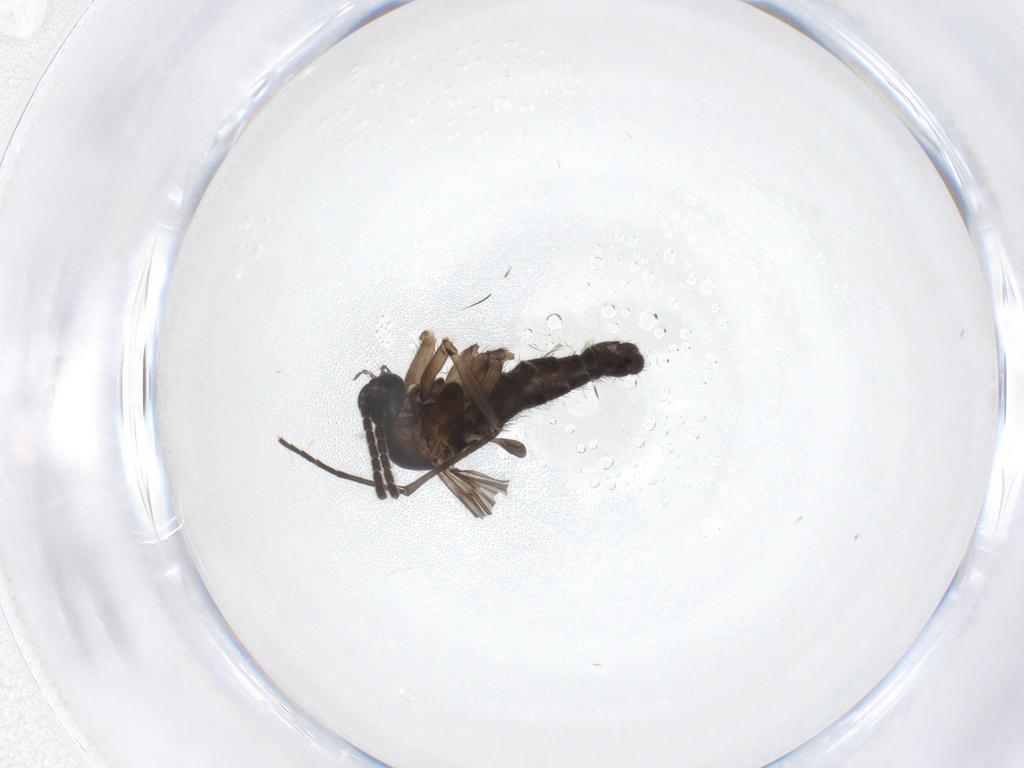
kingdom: Animalia
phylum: Arthropoda
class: Insecta
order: Diptera
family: Sciaridae
